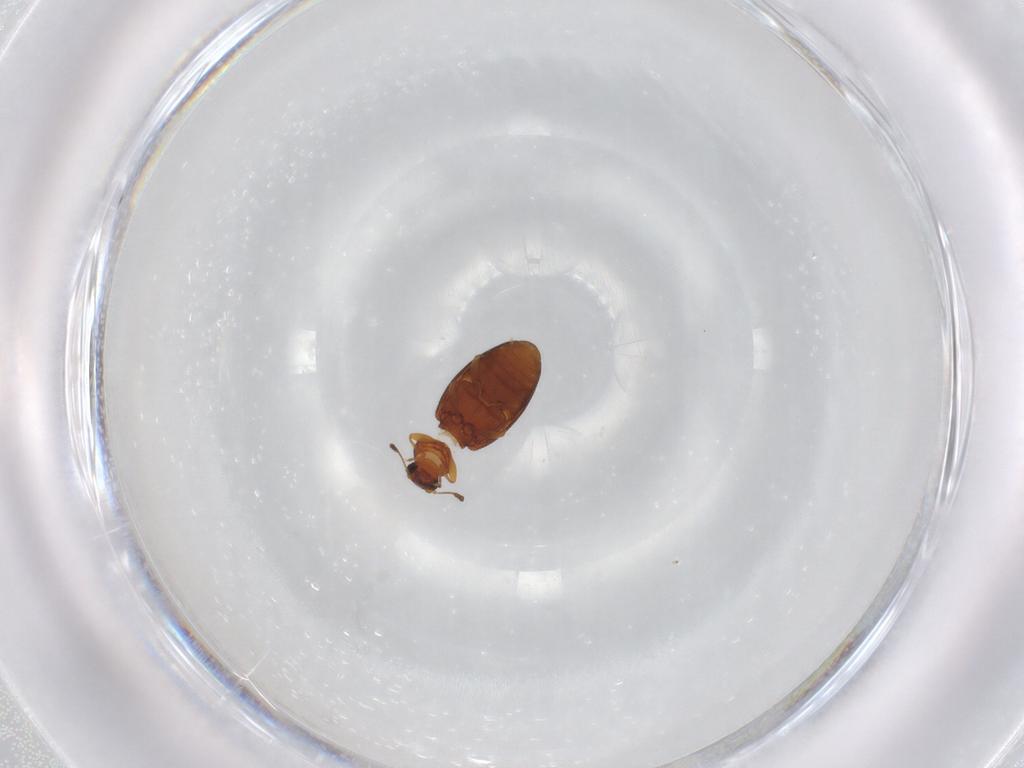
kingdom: Animalia
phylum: Arthropoda
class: Insecta
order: Coleoptera
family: Latridiidae
